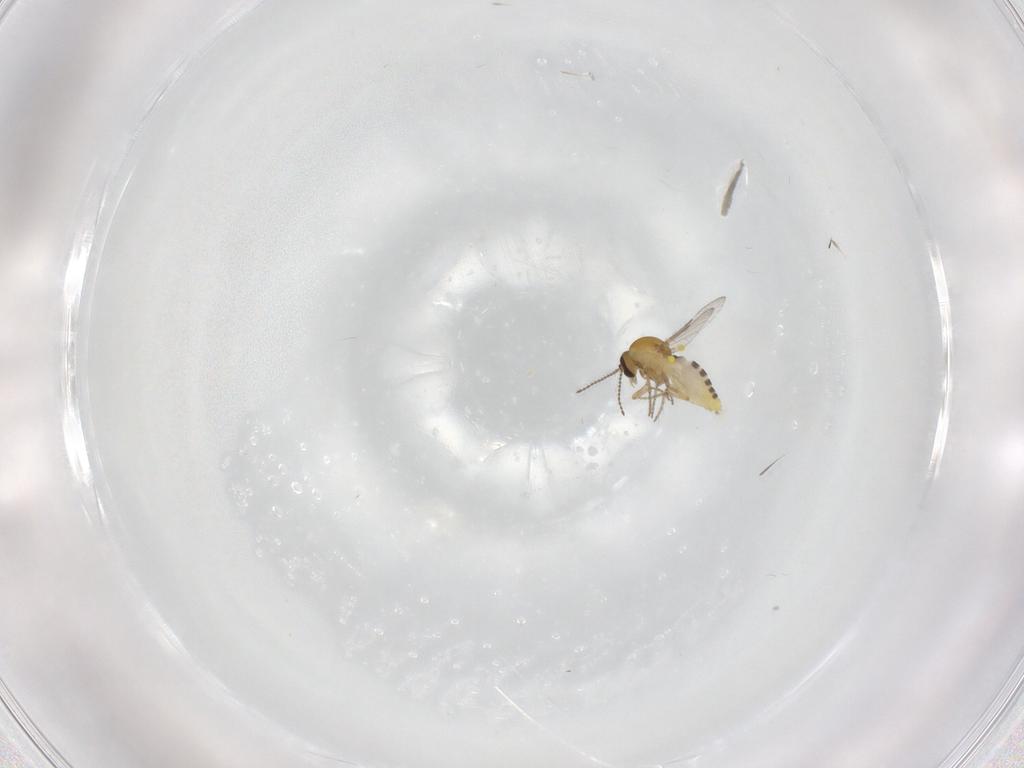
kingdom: Animalia
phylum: Arthropoda
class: Insecta
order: Diptera
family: Ceratopogonidae
